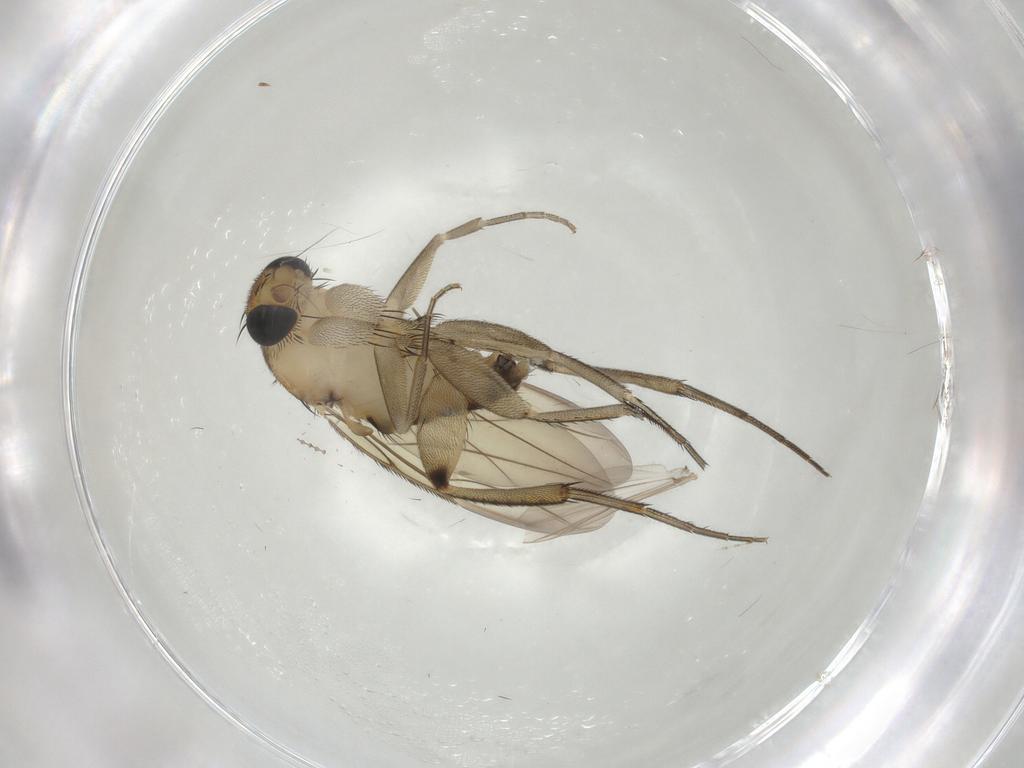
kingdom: Animalia
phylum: Arthropoda
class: Insecta
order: Diptera
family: Phoridae
